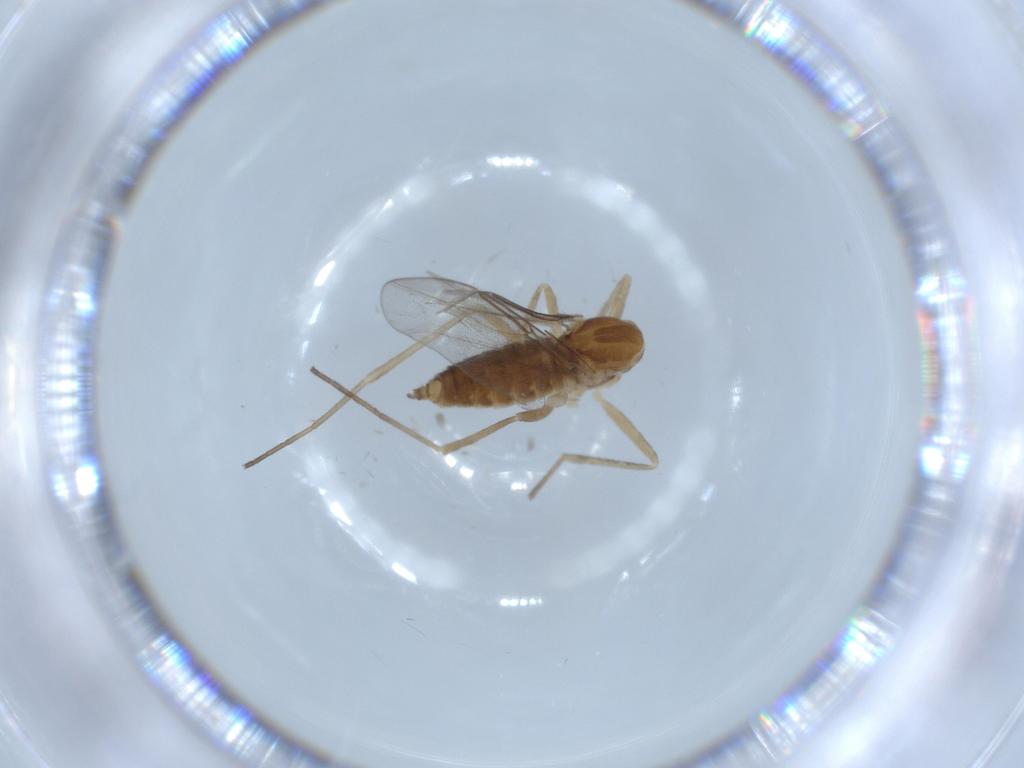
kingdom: Animalia
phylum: Arthropoda
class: Insecta
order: Diptera
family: Cecidomyiidae
